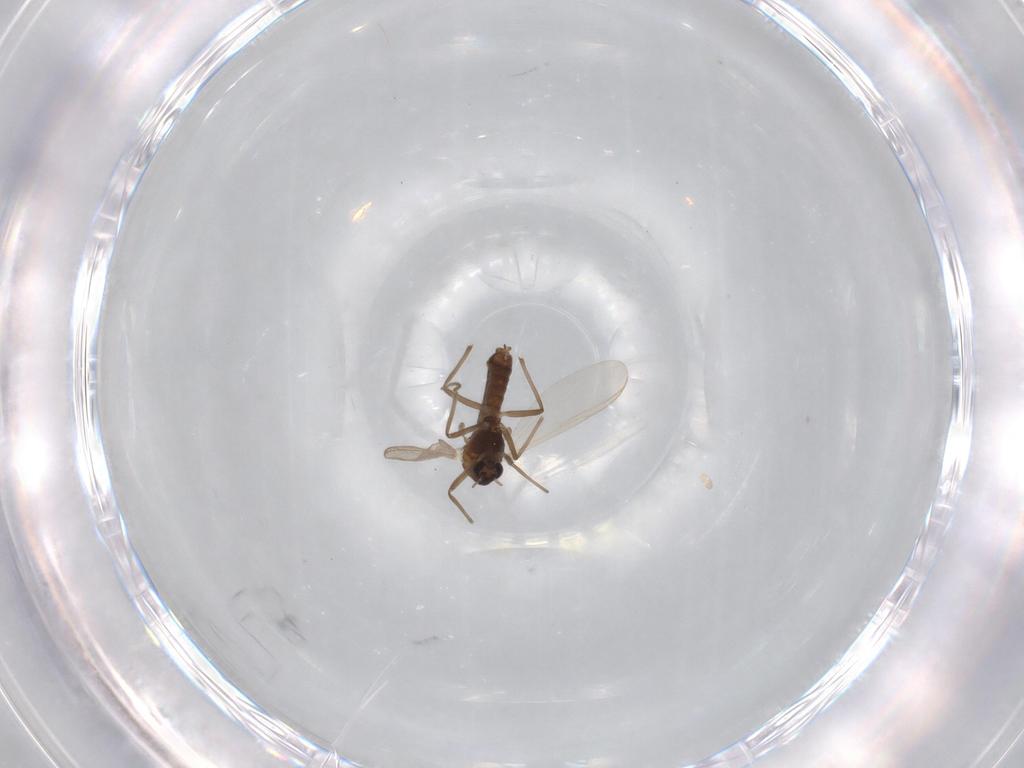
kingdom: Animalia
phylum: Arthropoda
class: Insecta
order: Diptera
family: Chironomidae
